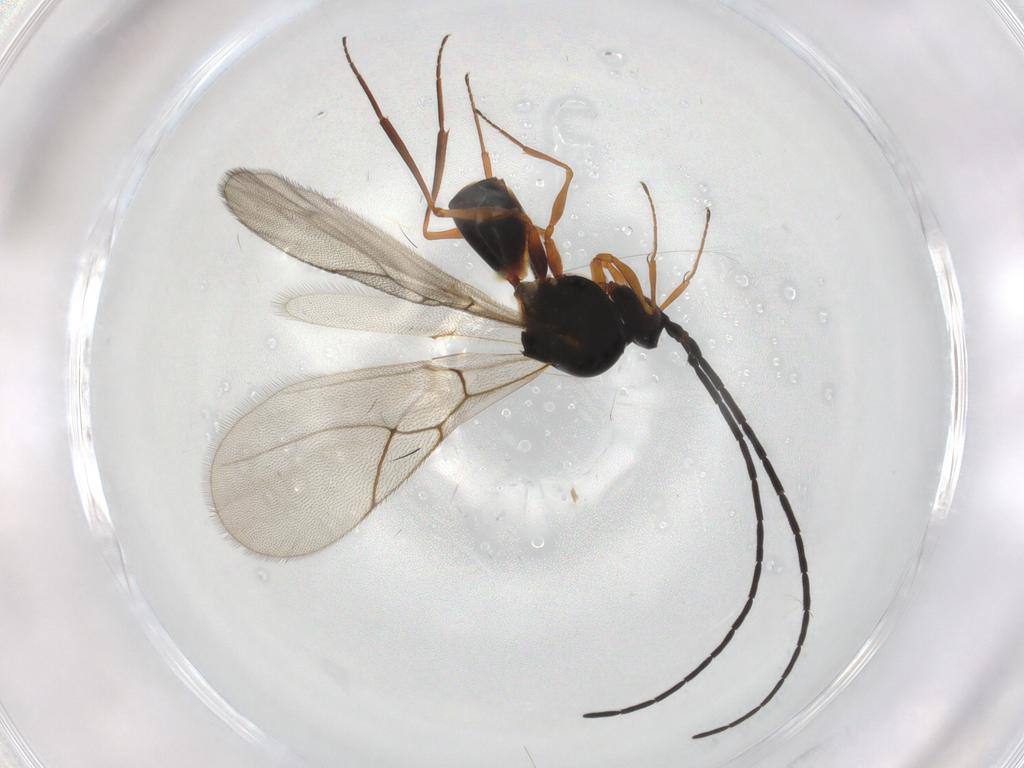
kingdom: Animalia
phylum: Arthropoda
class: Insecta
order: Hymenoptera
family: Figitidae
